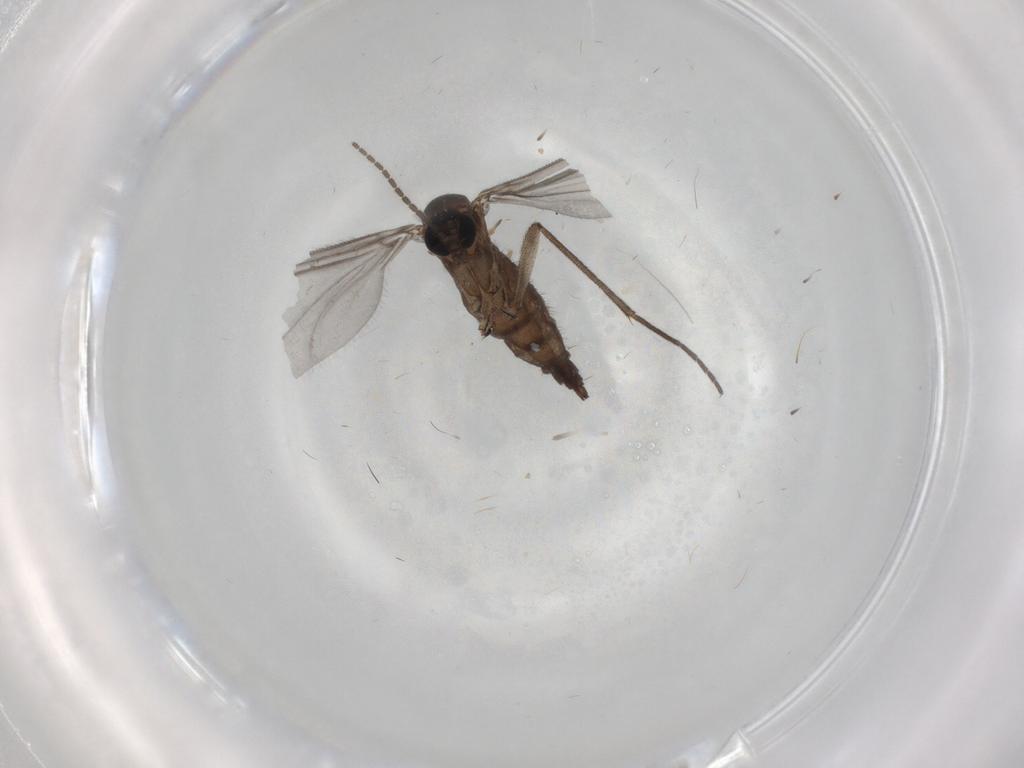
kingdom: Animalia
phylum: Arthropoda
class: Insecta
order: Diptera
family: Sciaridae
